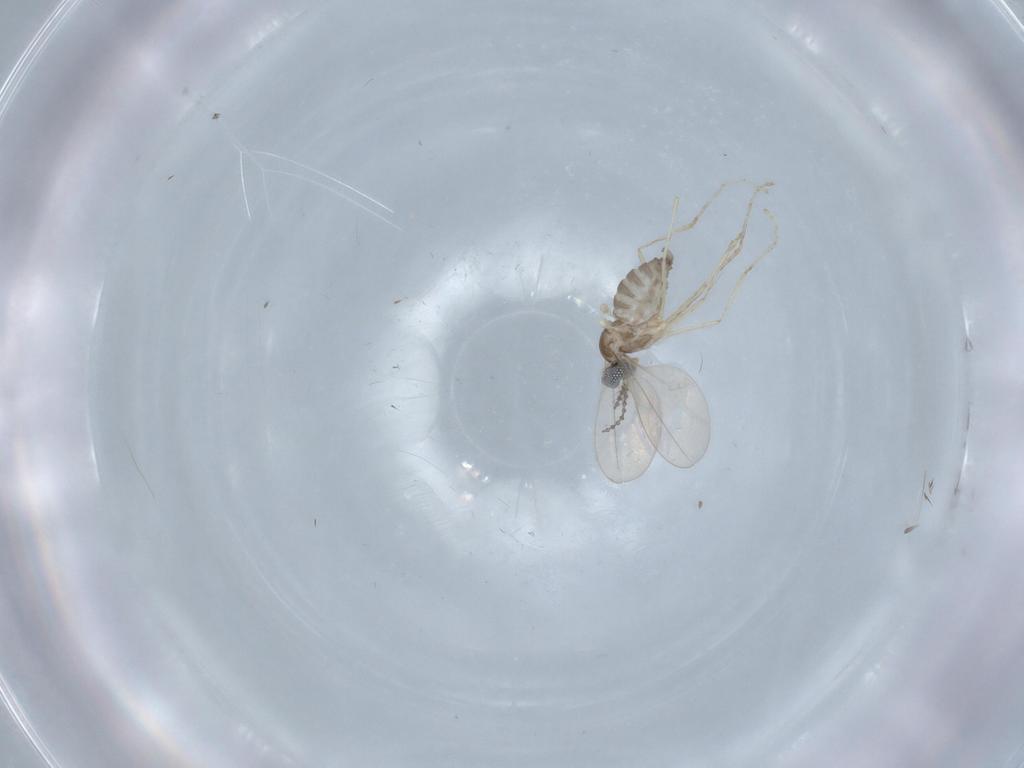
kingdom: Animalia
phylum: Arthropoda
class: Insecta
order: Diptera
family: Cecidomyiidae
